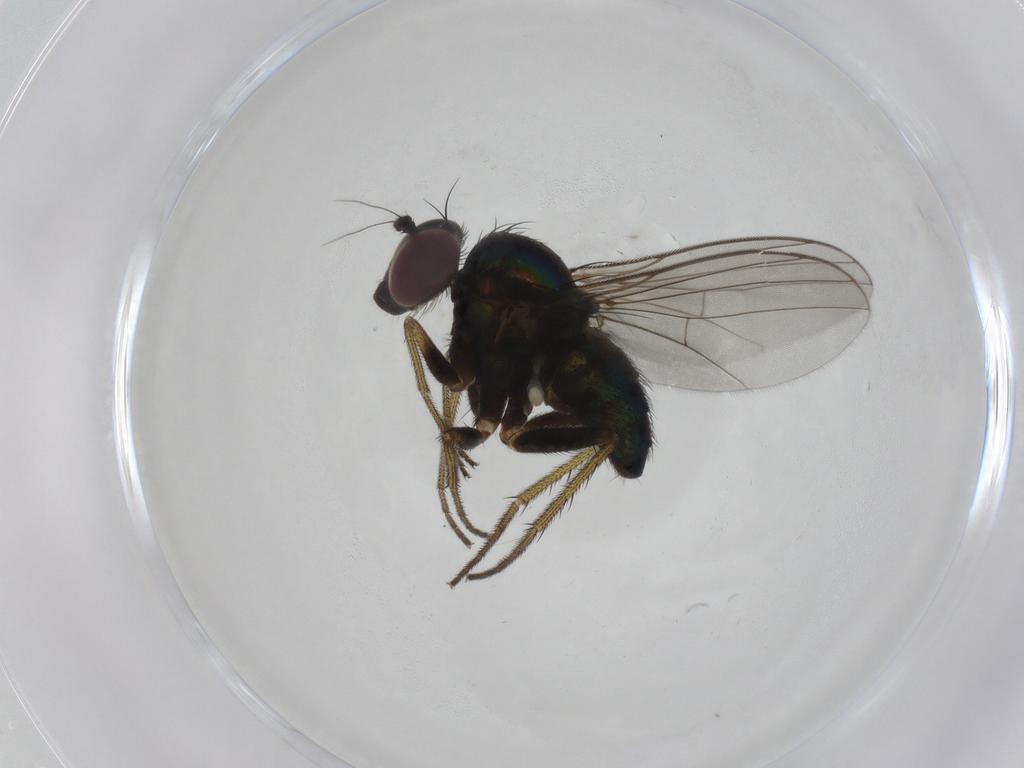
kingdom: Animalia
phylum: Arthropoda
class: Insecta
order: Diptera
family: Dolichopodidae
